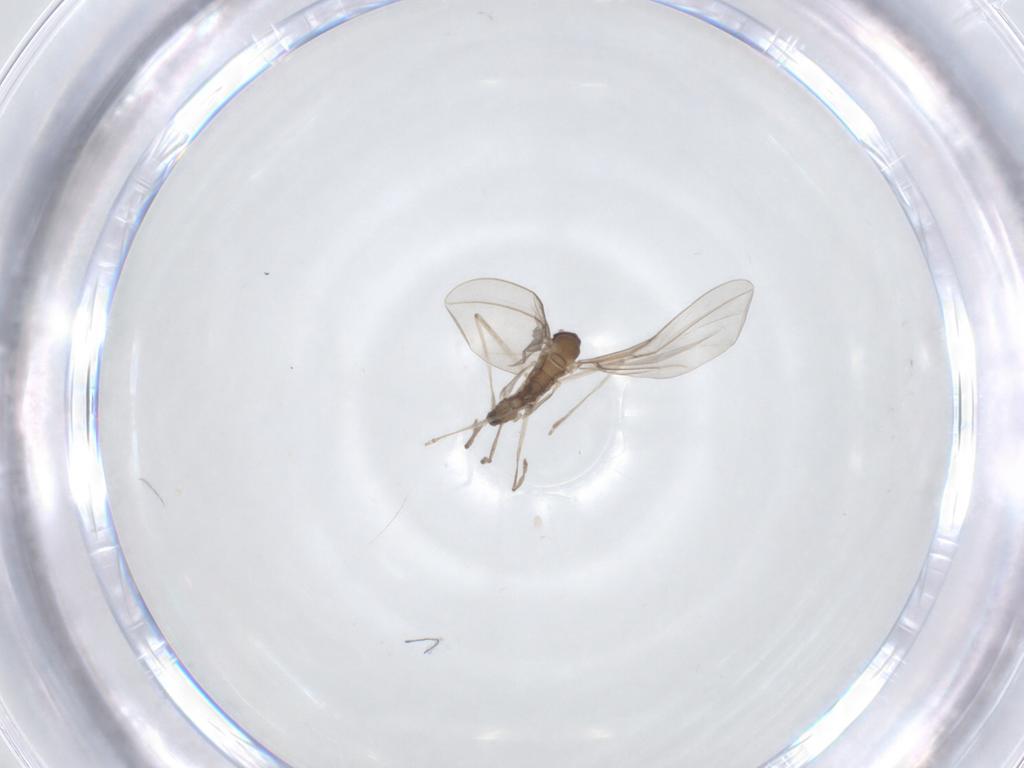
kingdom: Animalia
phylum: Arthropoda
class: Insecta
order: Diptera
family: Cecidomyiidae
